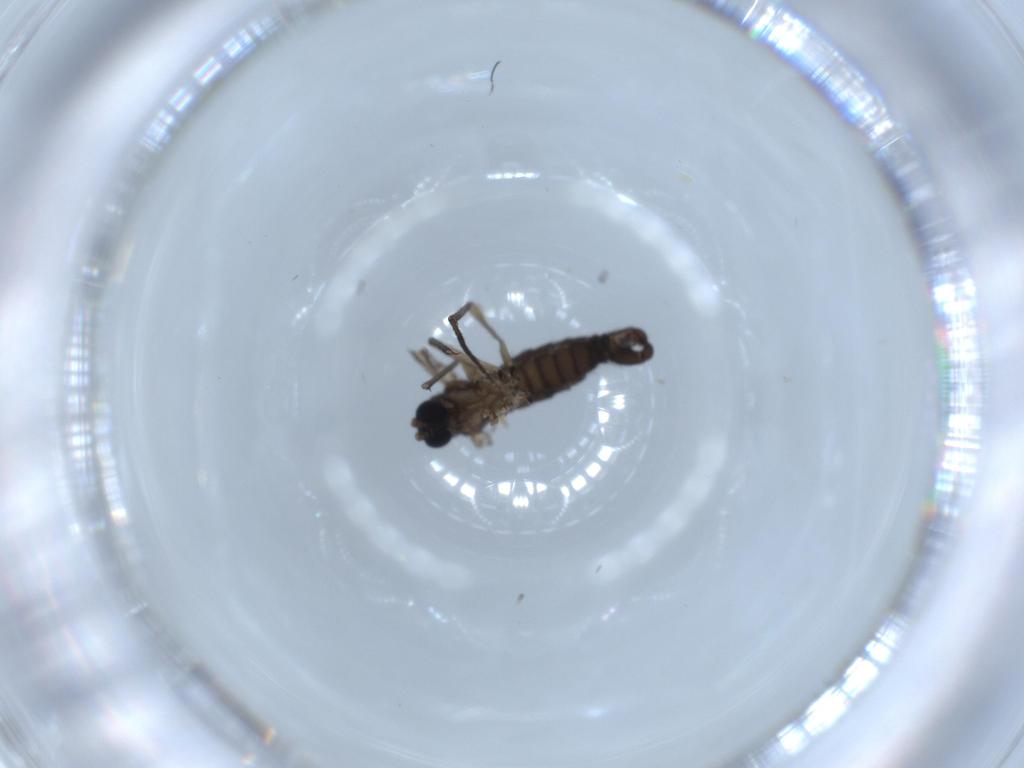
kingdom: Animalia
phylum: Arthropoda
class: Insecta
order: Diptera
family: Sciaridae
